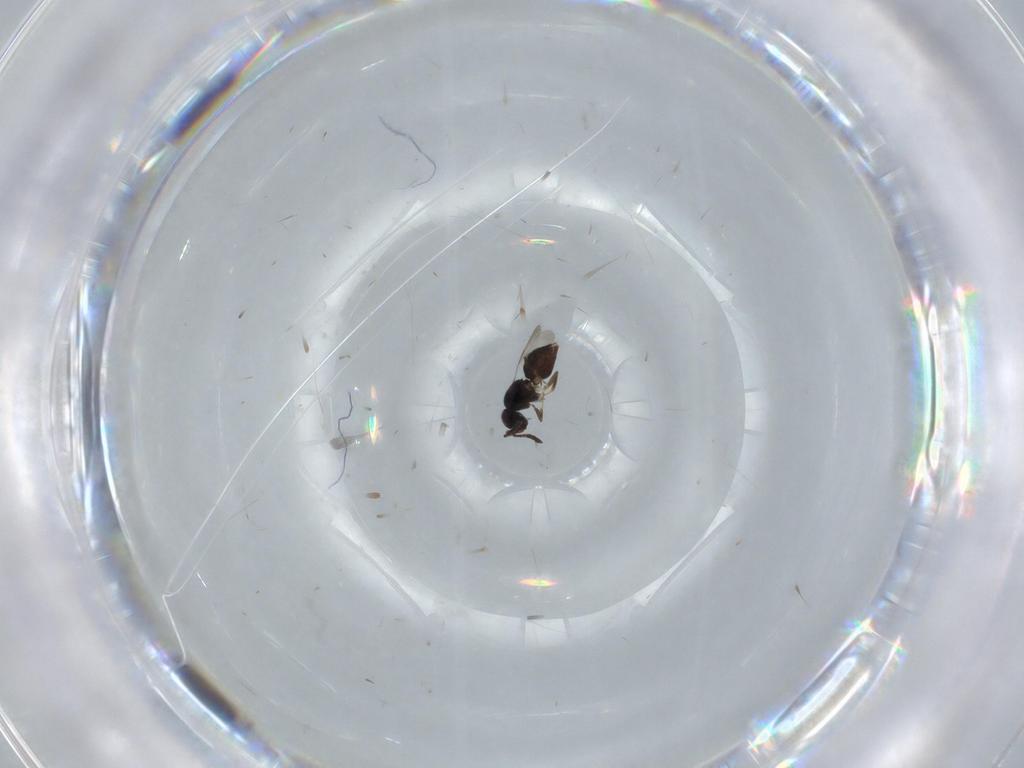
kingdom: Animalia
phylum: Arthropoda
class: Insecta
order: Hymenoptera
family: Ceraphronidae
